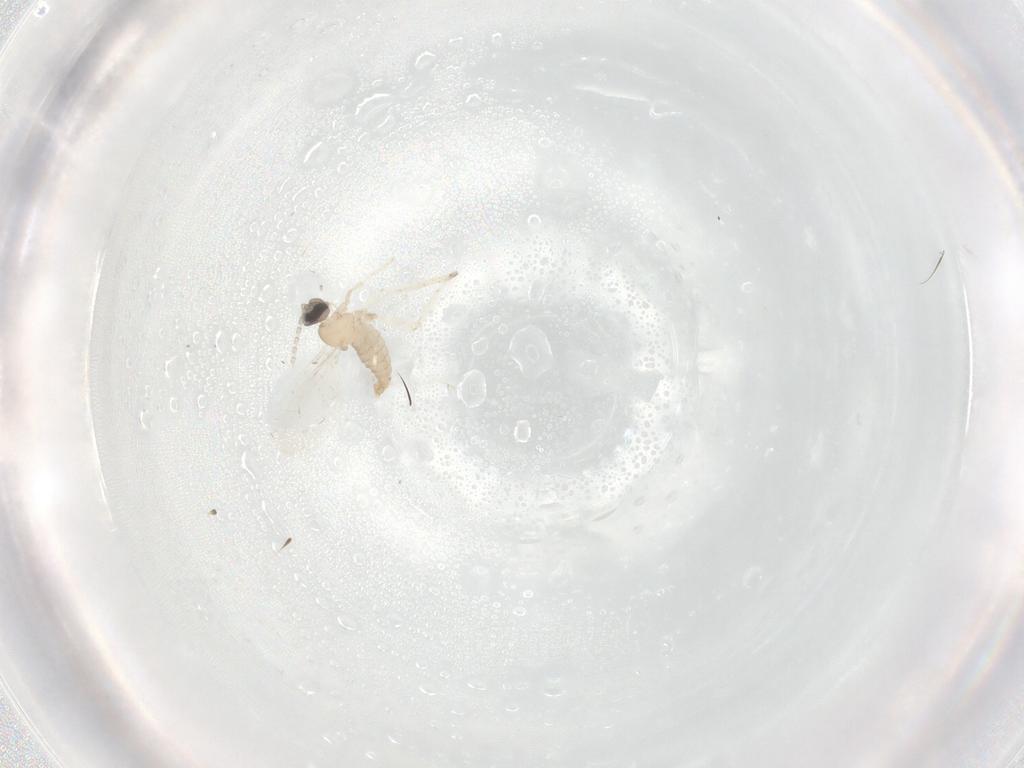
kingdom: Animalia
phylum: Arthropoda
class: Insecta
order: Diptera
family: Cecidomyiidae
